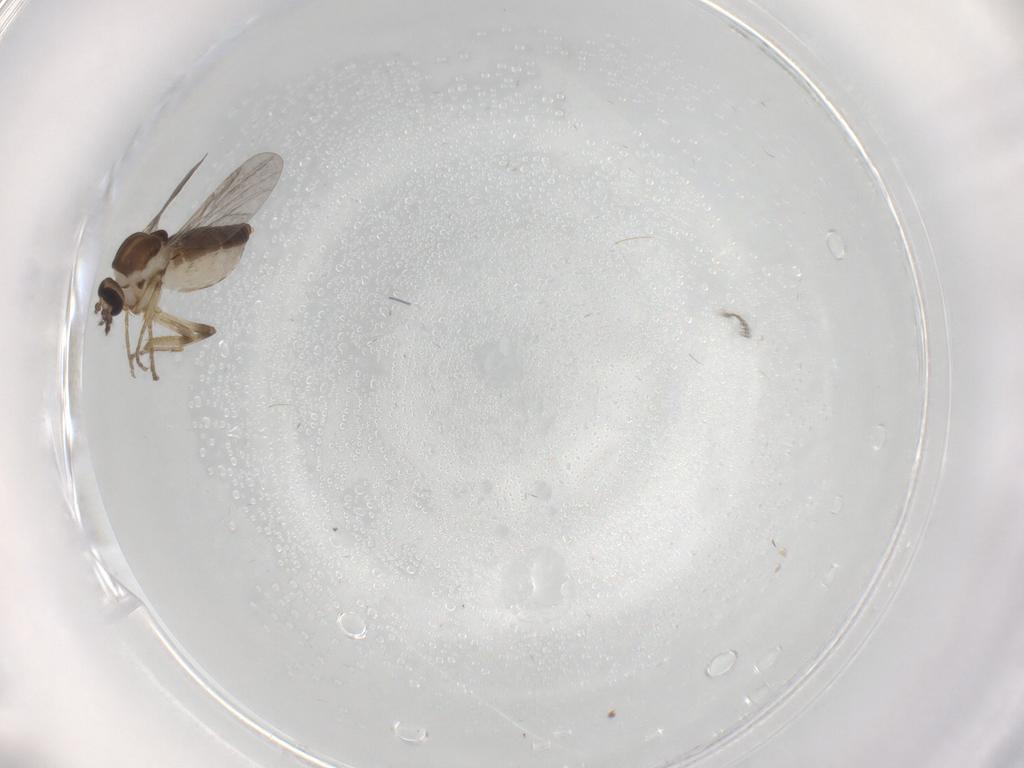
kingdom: Animalia
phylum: Arthropoda
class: Insecta
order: Diptera
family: Ceratopogonidae
